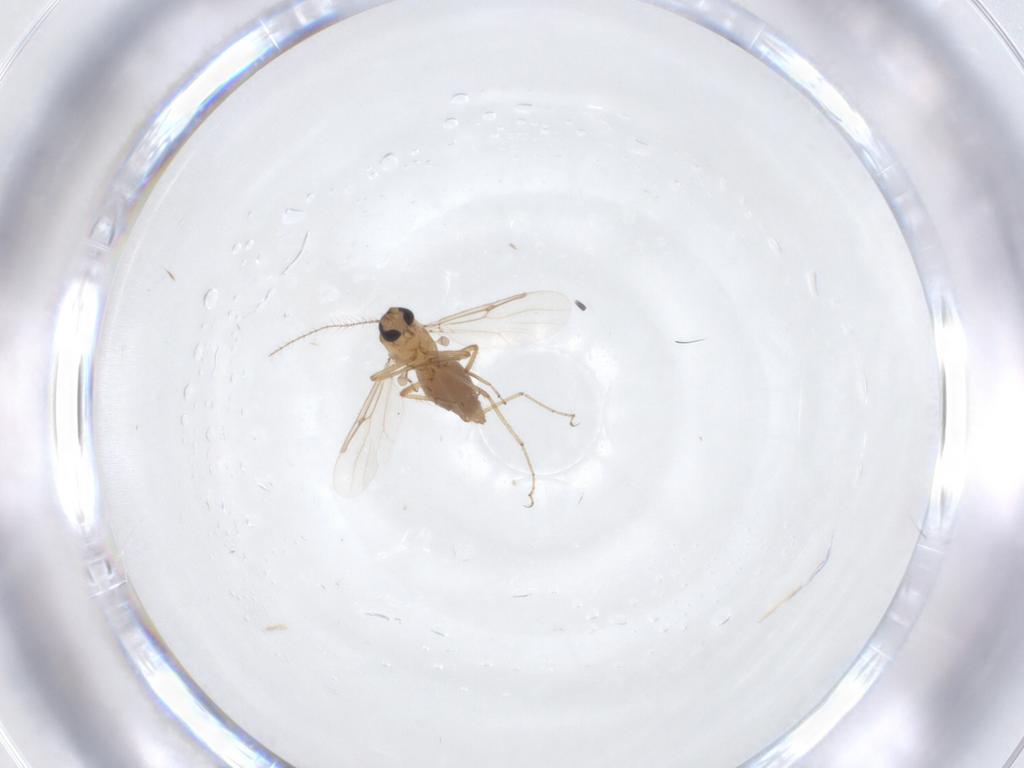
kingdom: Animalia
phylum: Arthropoda
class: Insecta
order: Diptera
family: Ceratopogonidae
